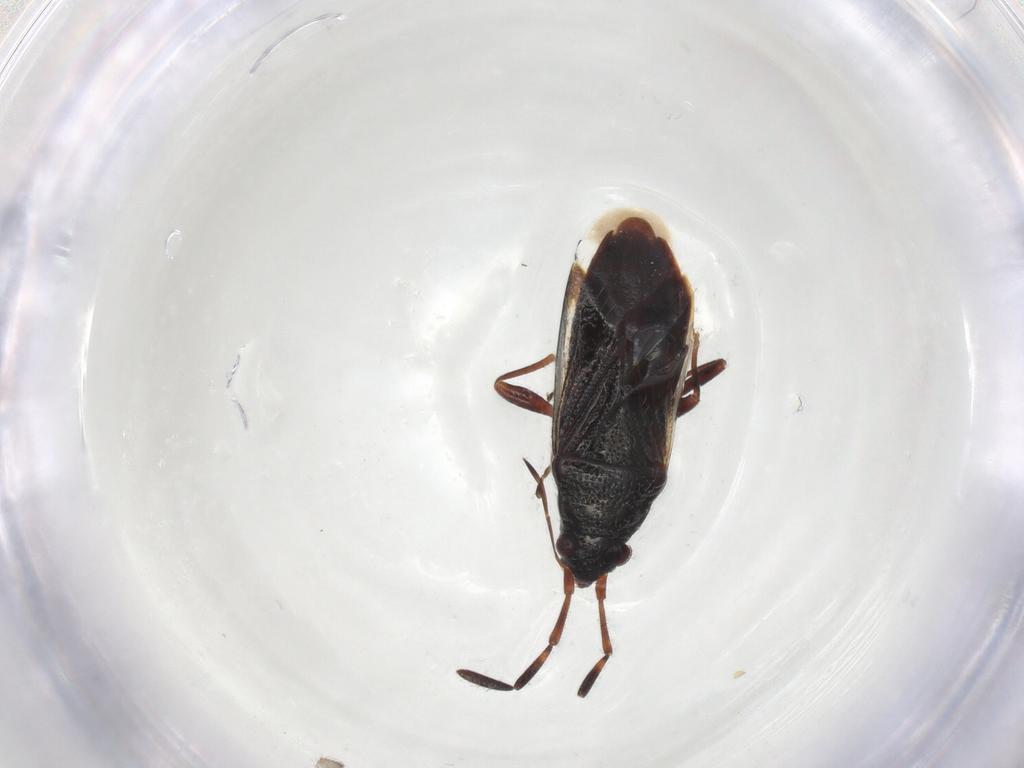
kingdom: Animalia
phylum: Arthropoda
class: Insecta
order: Hemiptera
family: Rhyparochromidae
